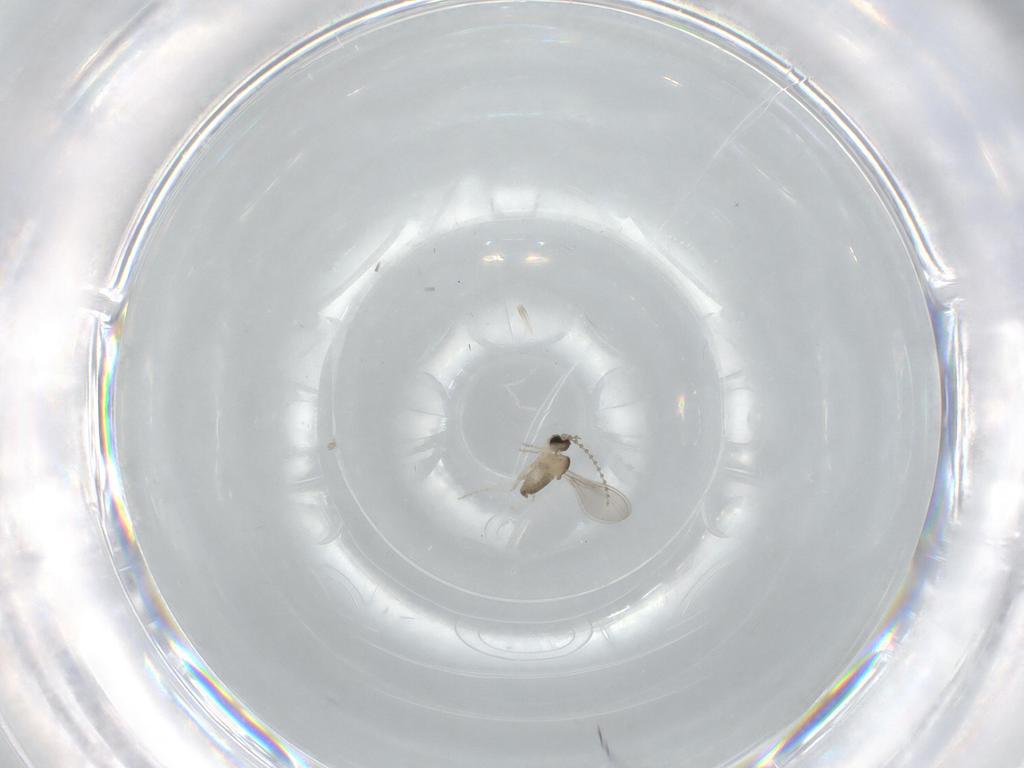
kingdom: Animalia
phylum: Arthropoda
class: Insecta
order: Diptera
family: Cecidomyiidae
